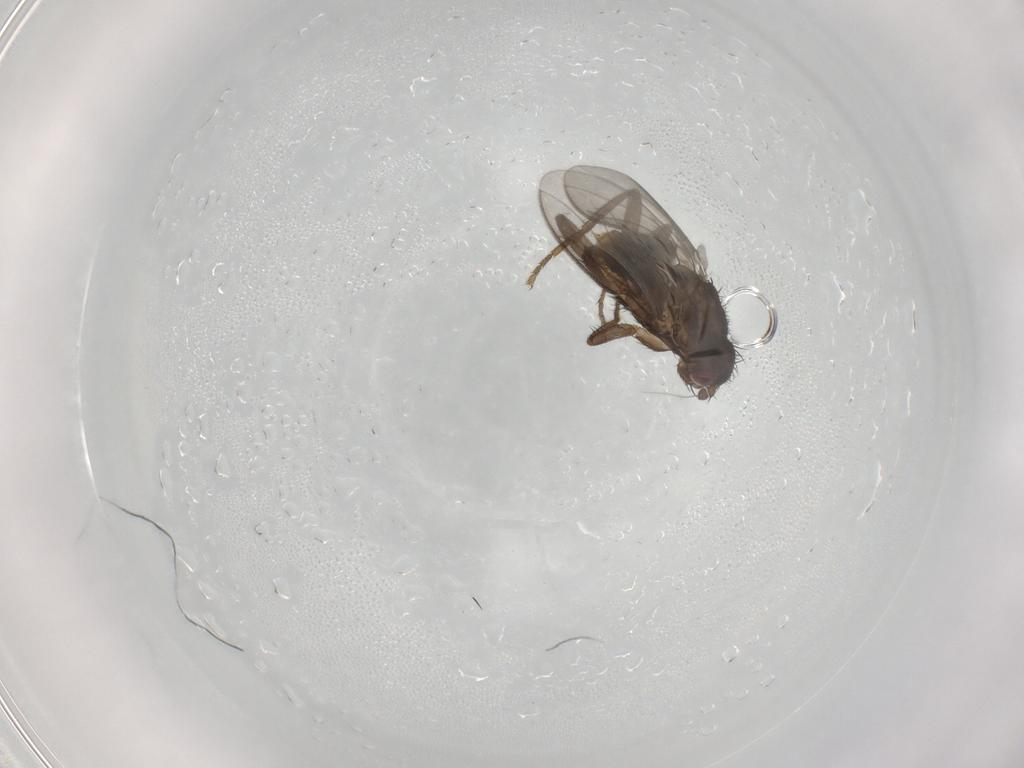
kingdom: Animalia
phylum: Arthropoda
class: Insecta
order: Diptera
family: Sphaeroceridae
